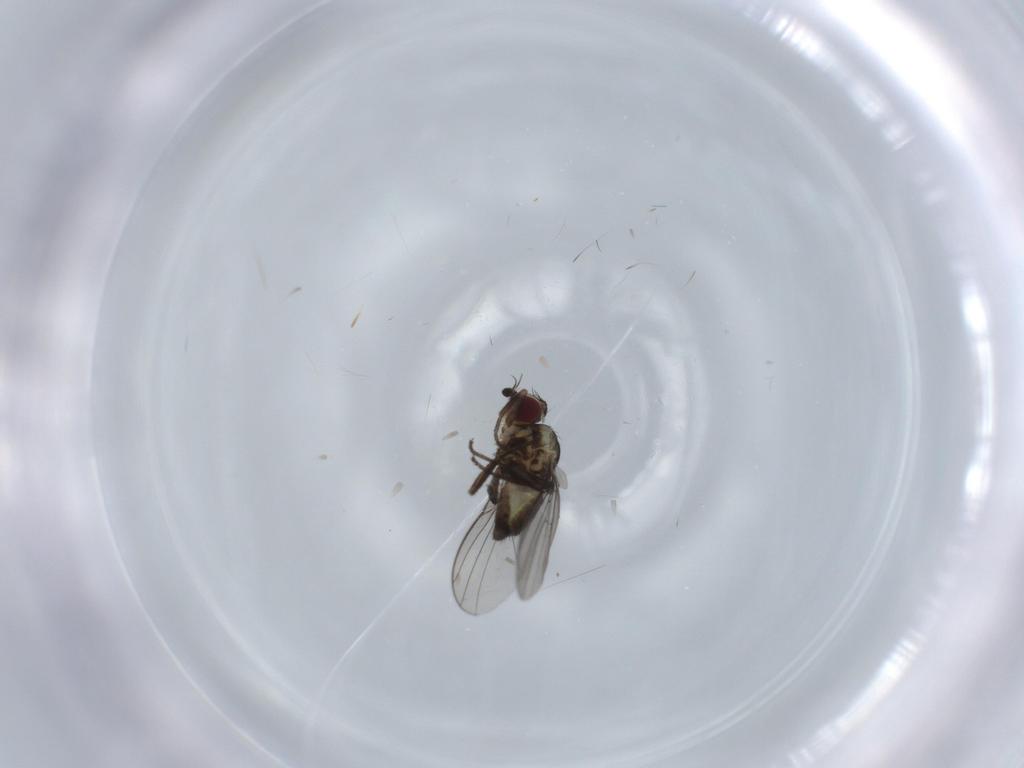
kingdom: Animalia
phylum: Arthropoda
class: Insecta
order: Diptera
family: Agromyzidae
